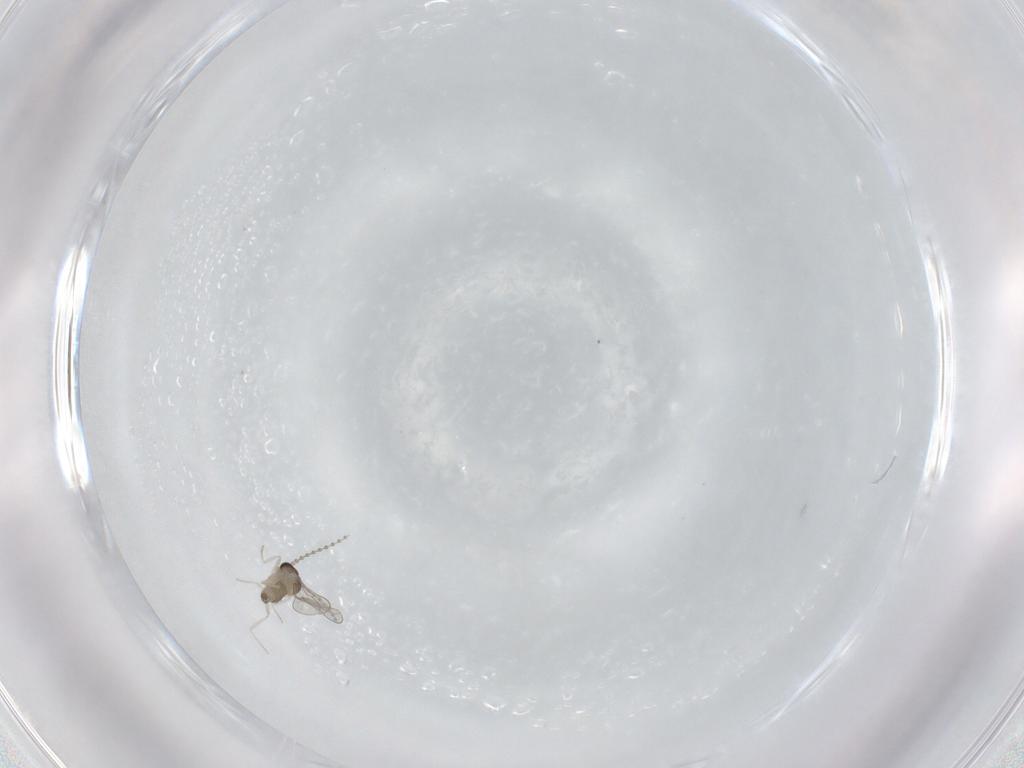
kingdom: Animalia
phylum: Arthropoda
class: Insecta
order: Diptera
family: Cecidomyiidae
